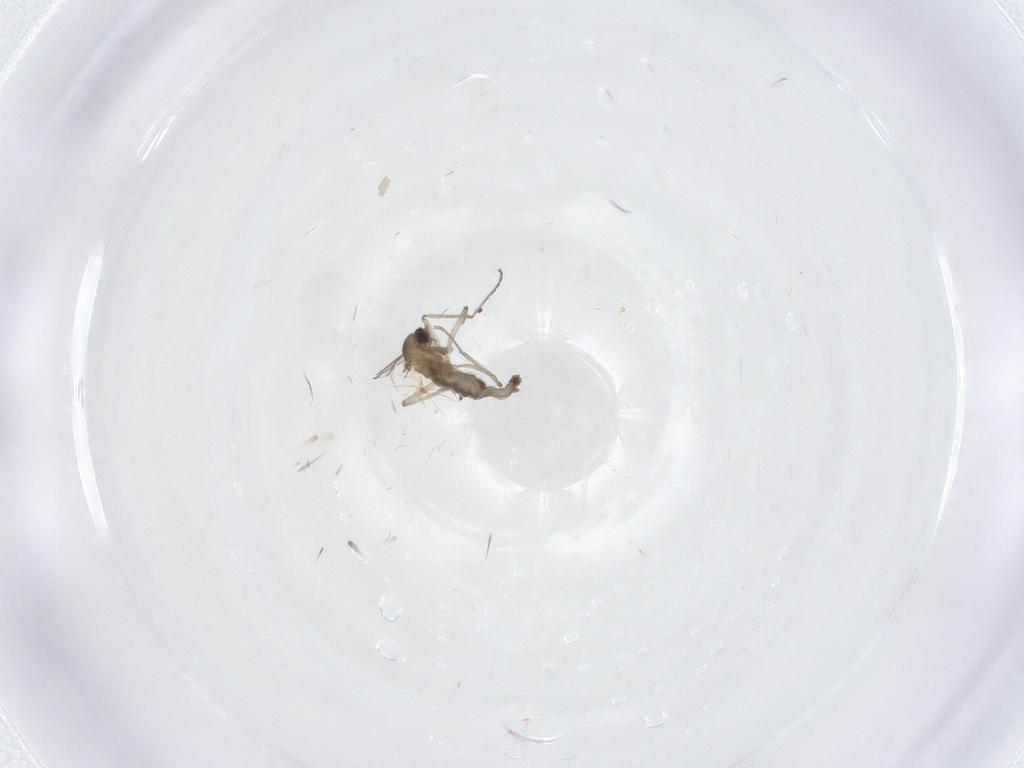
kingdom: Animalia
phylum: Arthropoda
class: Insecta
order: Diptera
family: Cecidomyiidae
